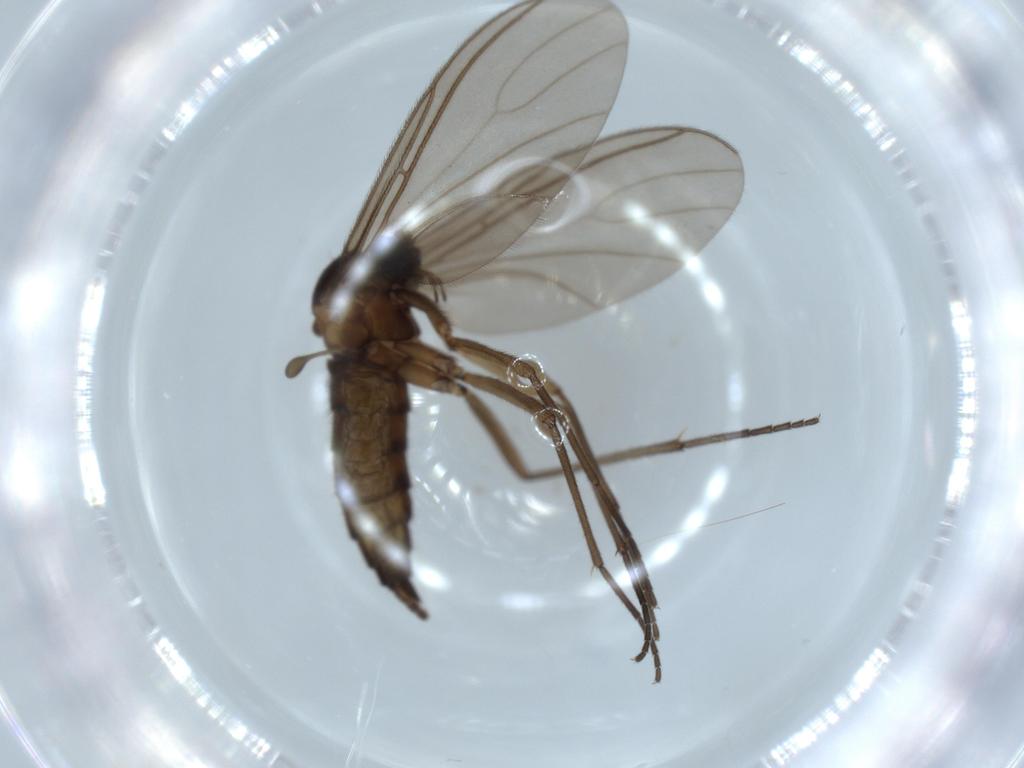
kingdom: Animalia
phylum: Arthropoda
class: Insecta
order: Diptera
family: Sciaridae
